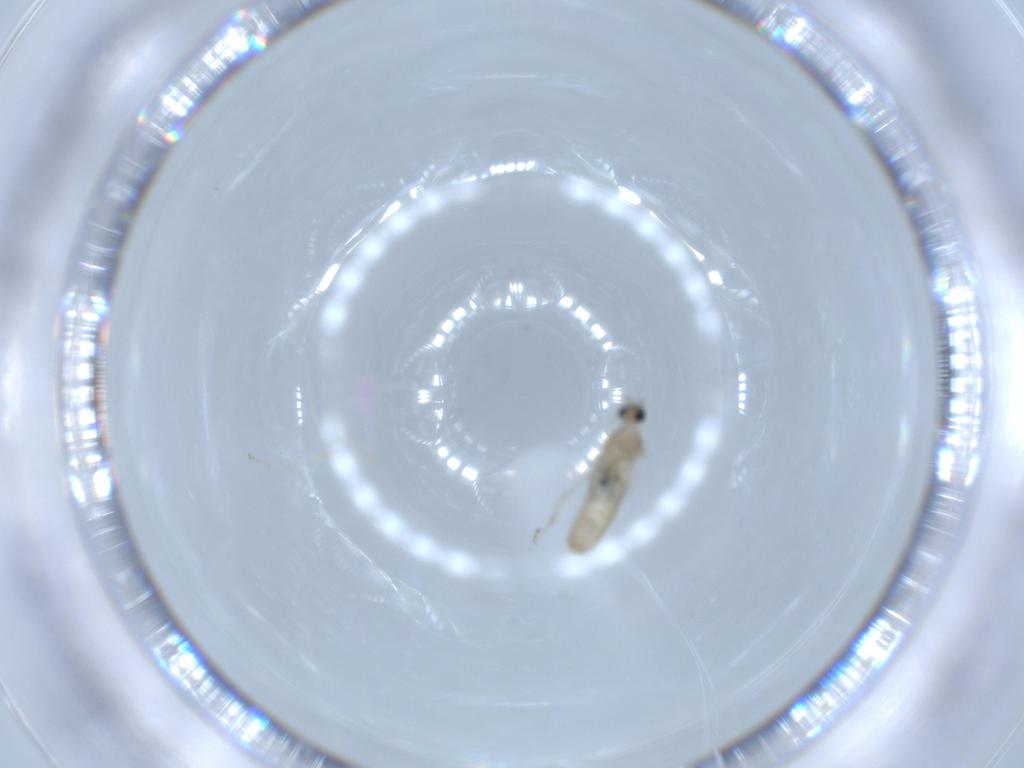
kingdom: Animalia
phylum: Arthropoda
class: Insecta
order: Diptera
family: Cecidomyiidae
